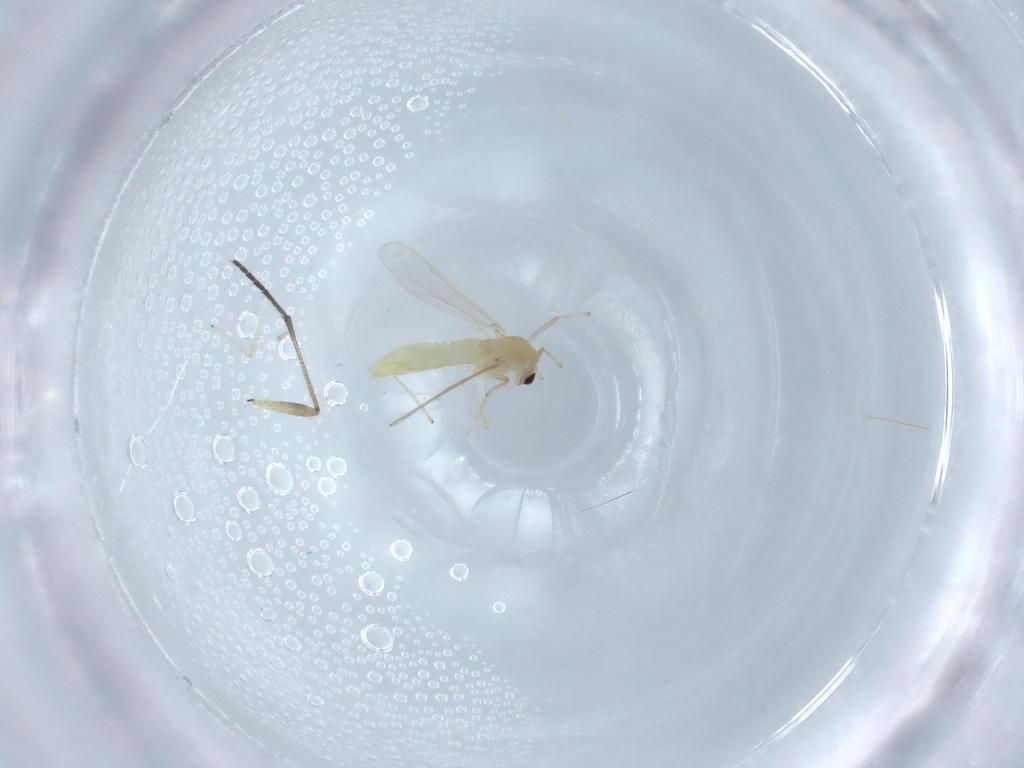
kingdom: Animalia
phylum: Arthropoda
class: Insecta
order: Diptera
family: Chironomidae
